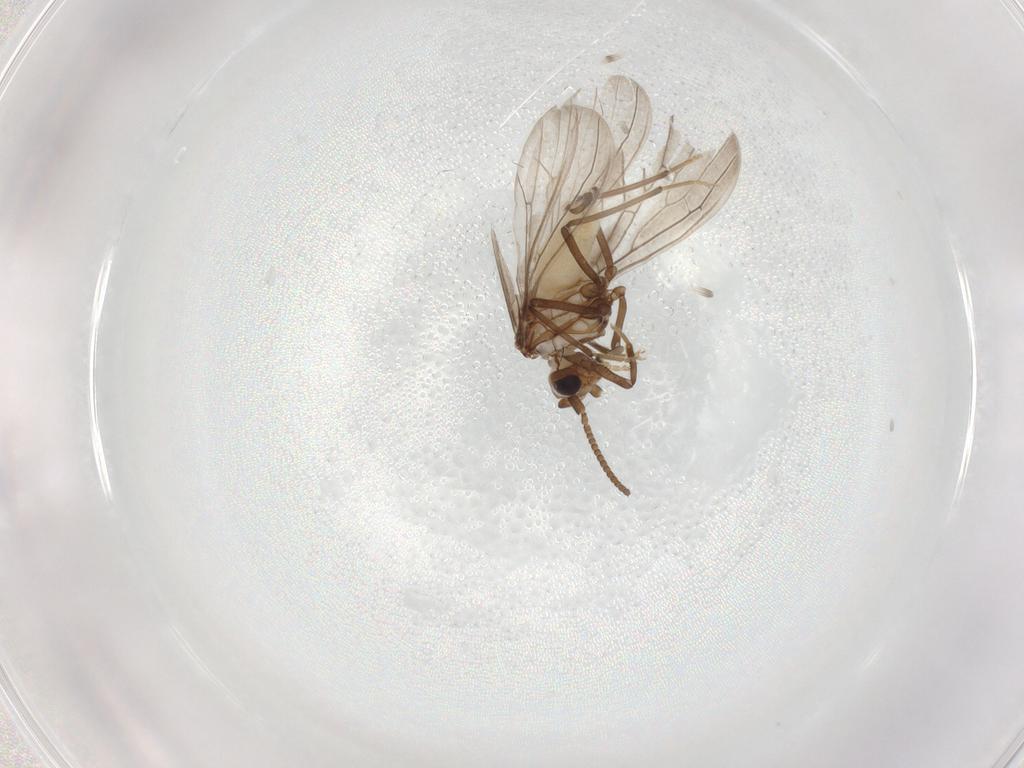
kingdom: Animalia
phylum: Arthropoda
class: Insecta
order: Neuroptera
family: Coniopterygidae
